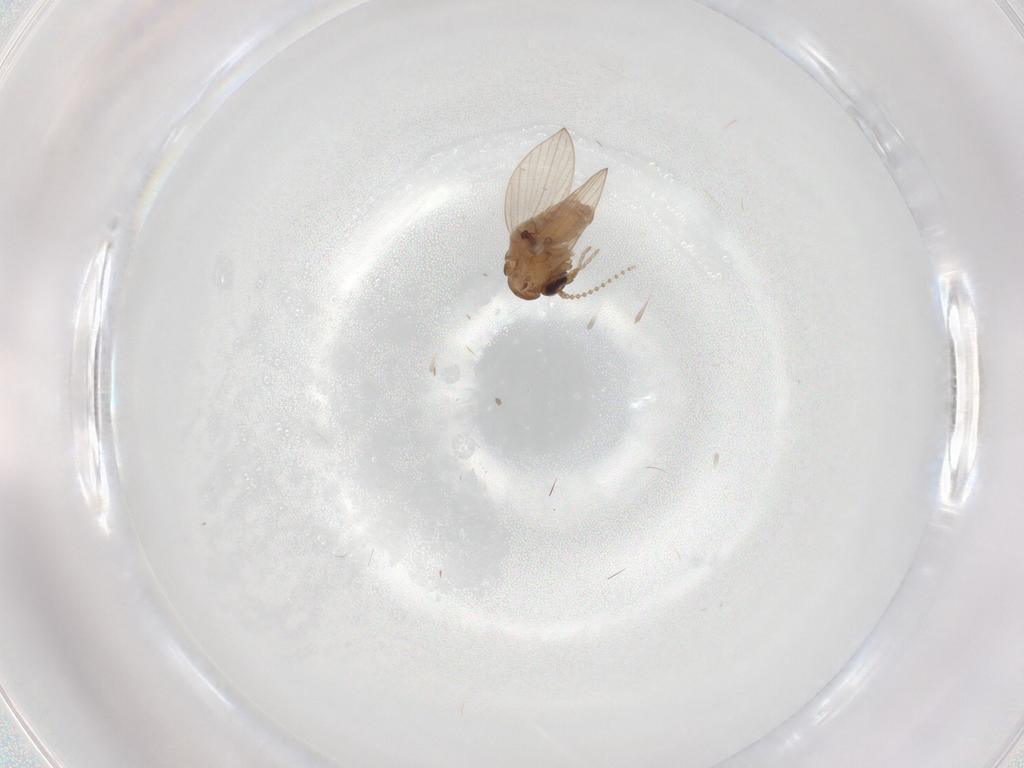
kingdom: Animalia
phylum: Arthropoda
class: Insecta
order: Diptera
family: Psychodidae
